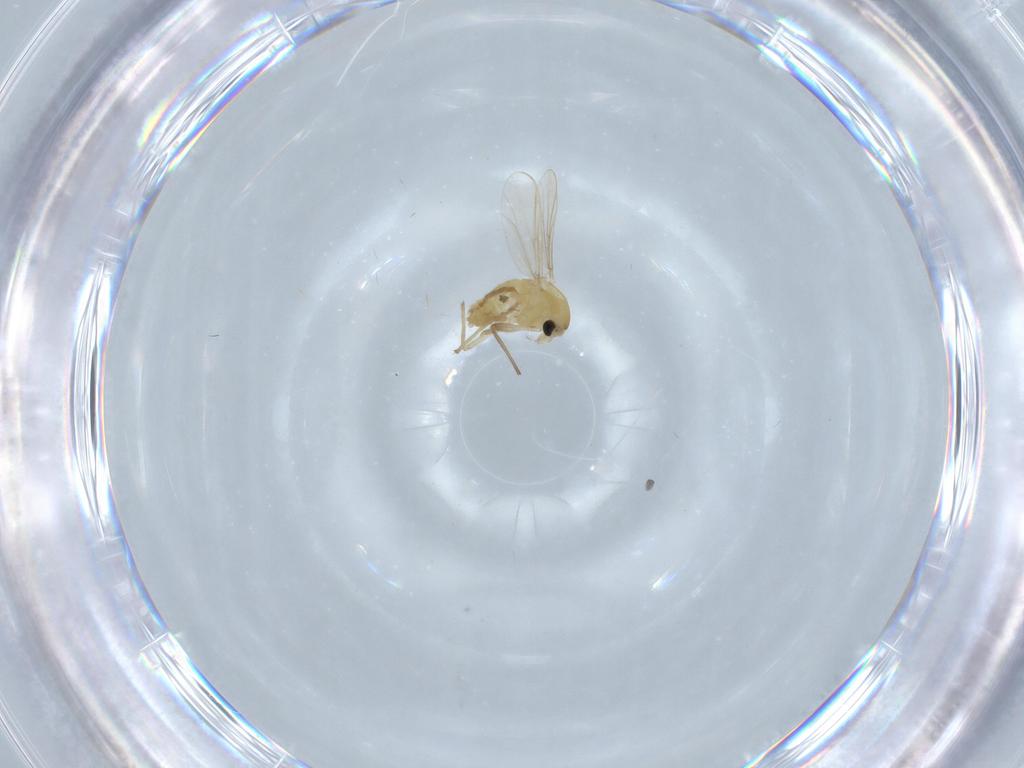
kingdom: Animalia
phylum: Arthropoda
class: Insecta
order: Diptera
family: Chironomidae
